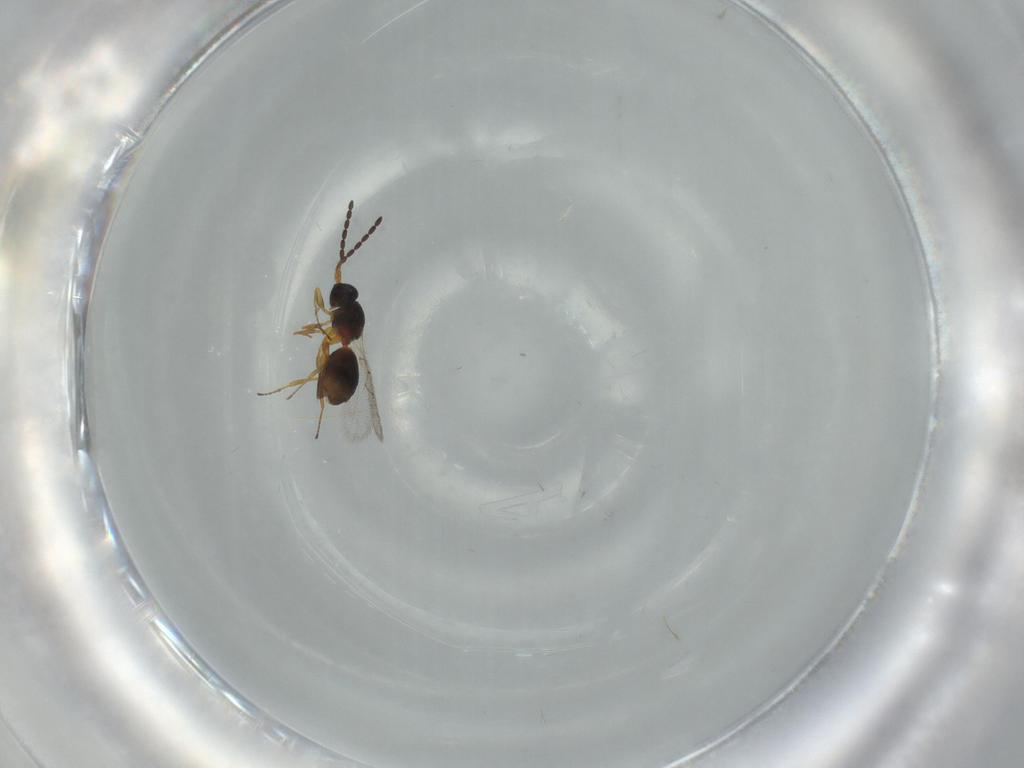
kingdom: Animalia
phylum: Arthropoda
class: Insecta
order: Hymenoptera
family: Figitidae
